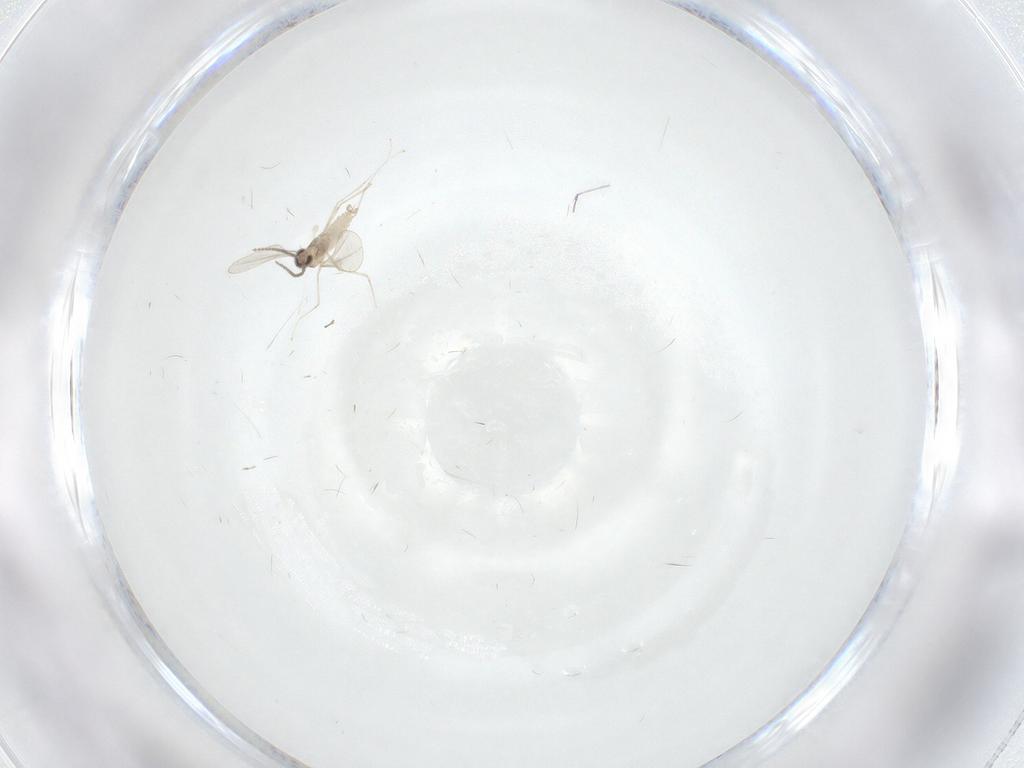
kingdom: Animalia
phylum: Arthropoda
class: Insecta
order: Diptera
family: Cecidomyiidae
